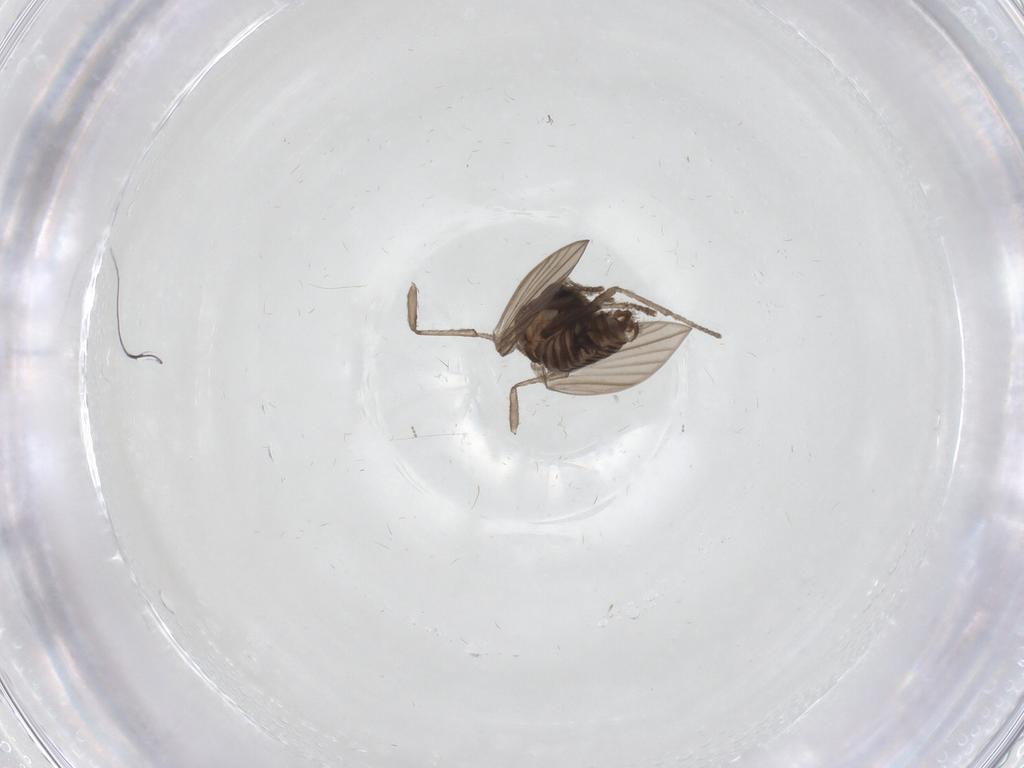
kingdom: Animalia
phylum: Arthropoda
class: Insecta
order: Diptera
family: Psychodidae
